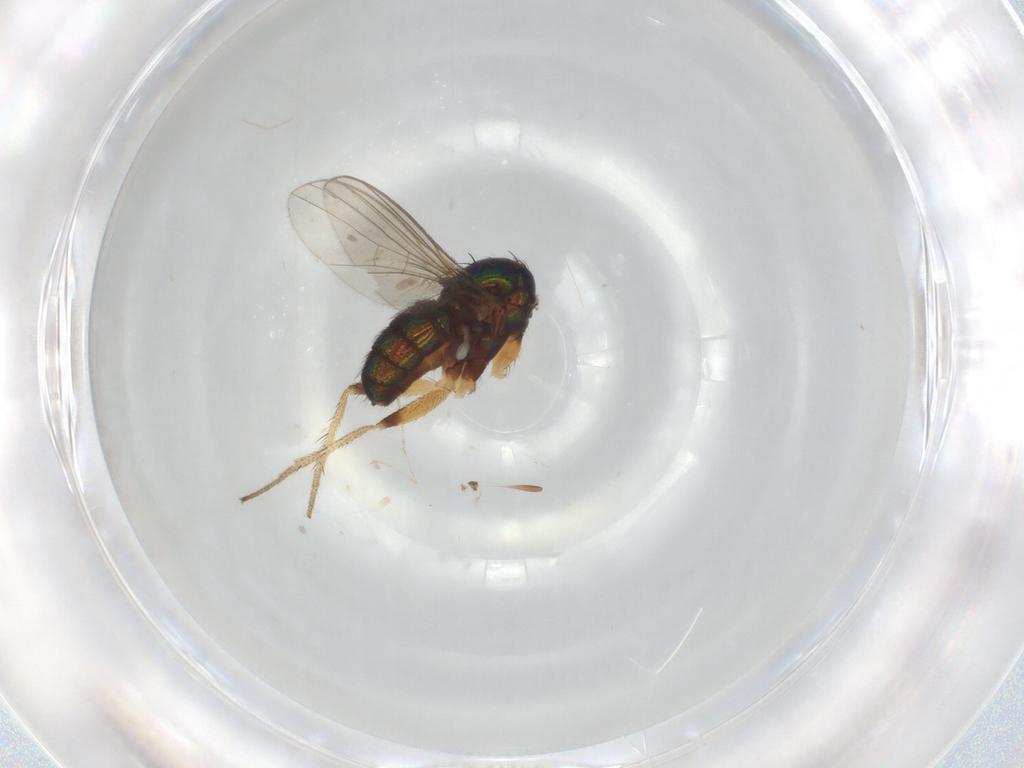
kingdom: Animalia
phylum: Arthropoda
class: Insecta
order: Diptera
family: Cecidomyiidae
